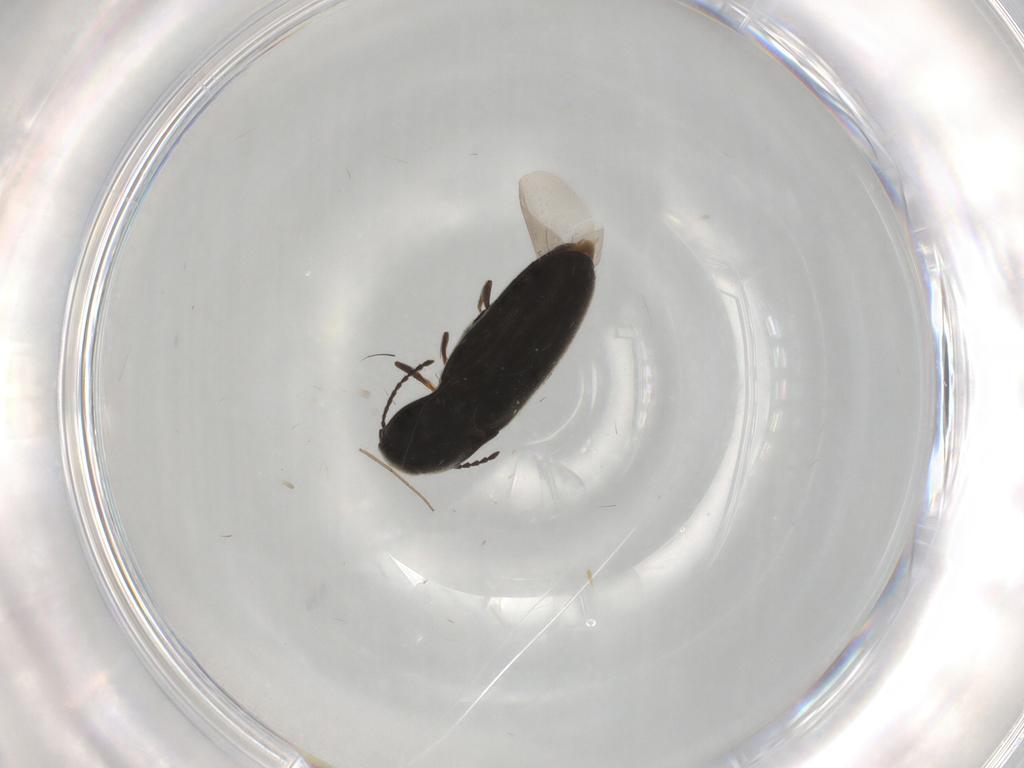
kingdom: Animalia
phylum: Arthropoda
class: Insecta
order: Coleoptera
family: Elateridae
